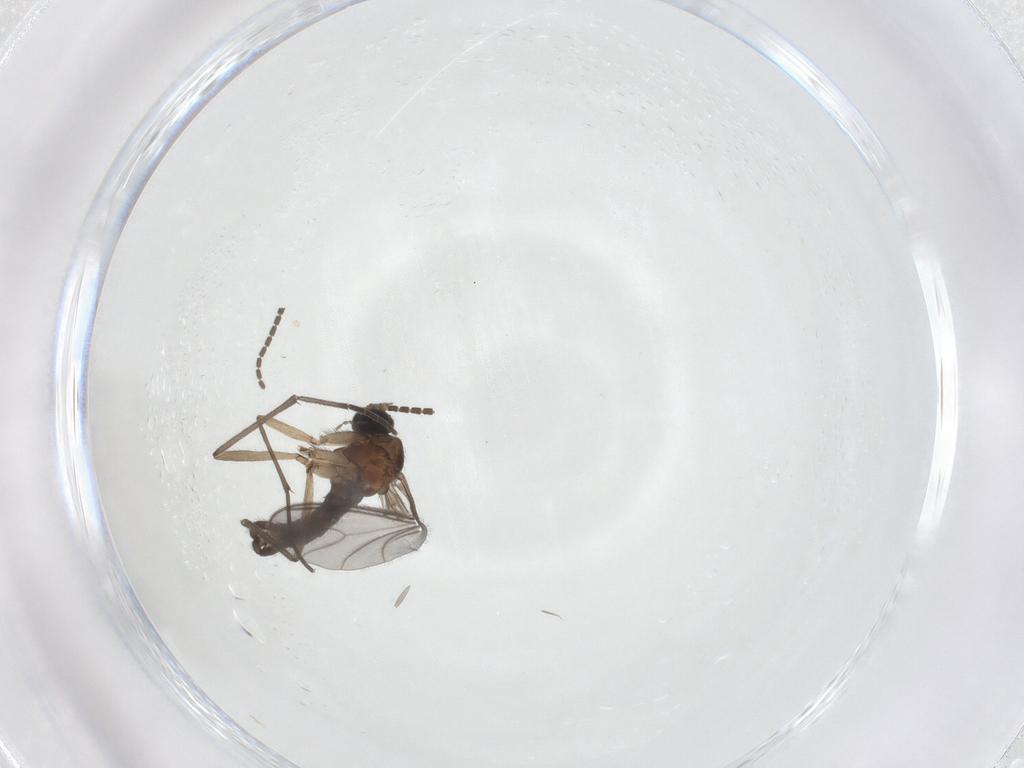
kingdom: Animalia
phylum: Arthropoda
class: Insecta
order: Diptera
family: Sciaridae
